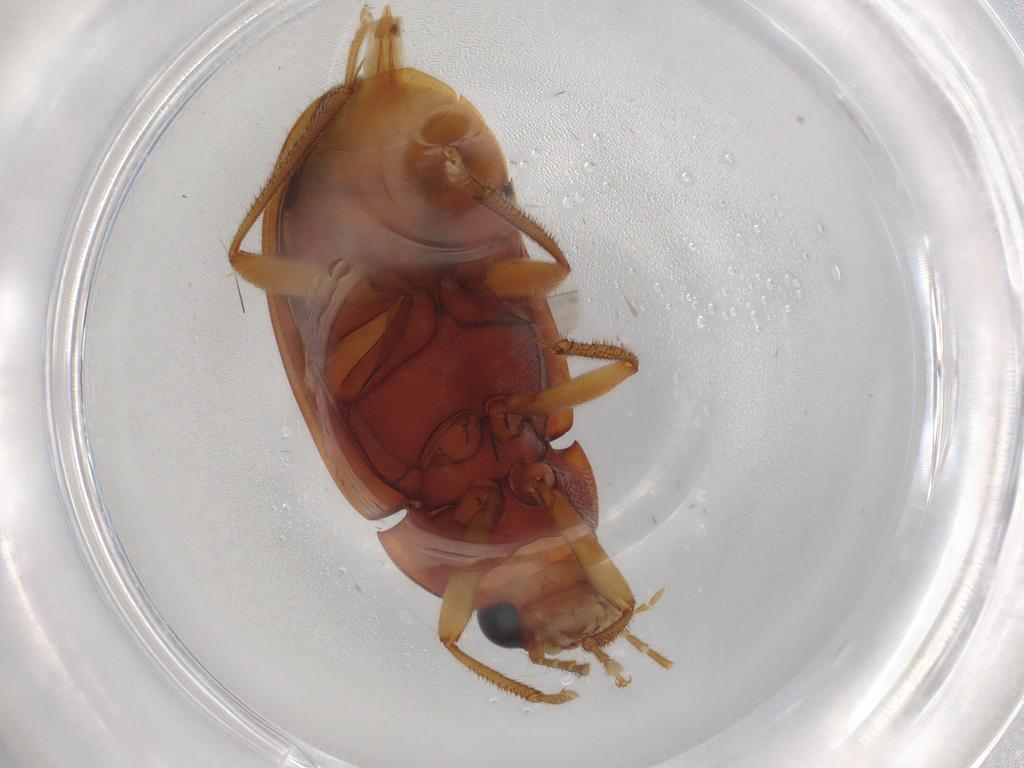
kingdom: Animalia
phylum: Arthropoda
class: Insecta
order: Coleoptera
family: Ptilodactylidae
